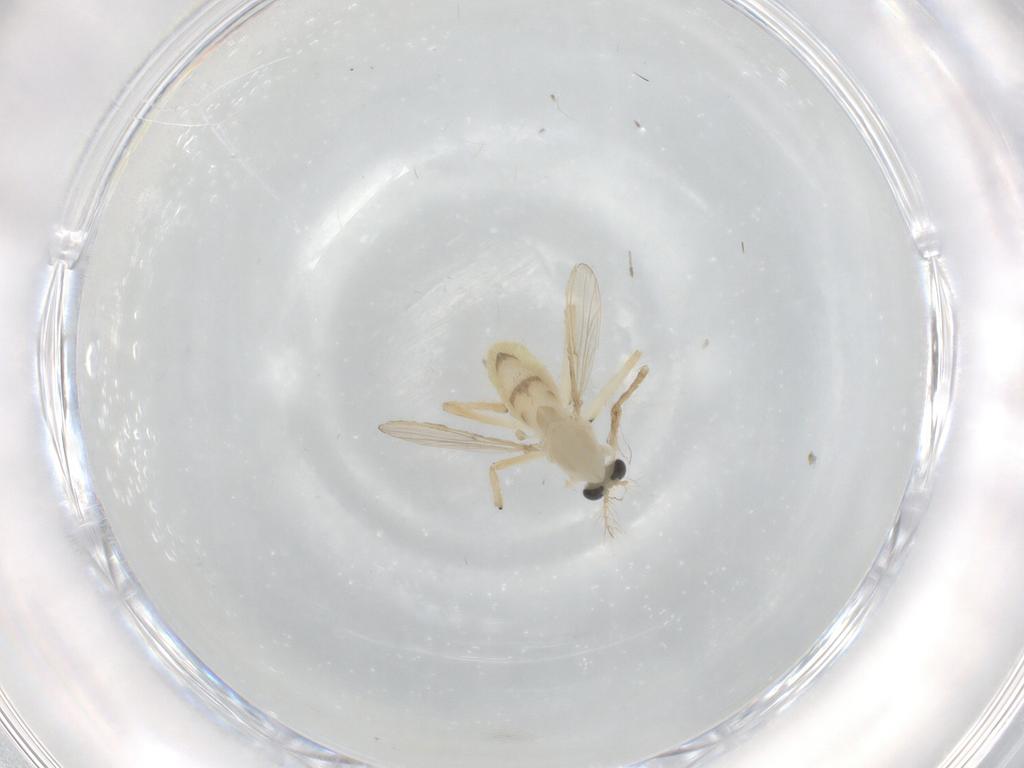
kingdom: Animalia
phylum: Arthropoda
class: Insecta
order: Diptera
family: Chironomidae
